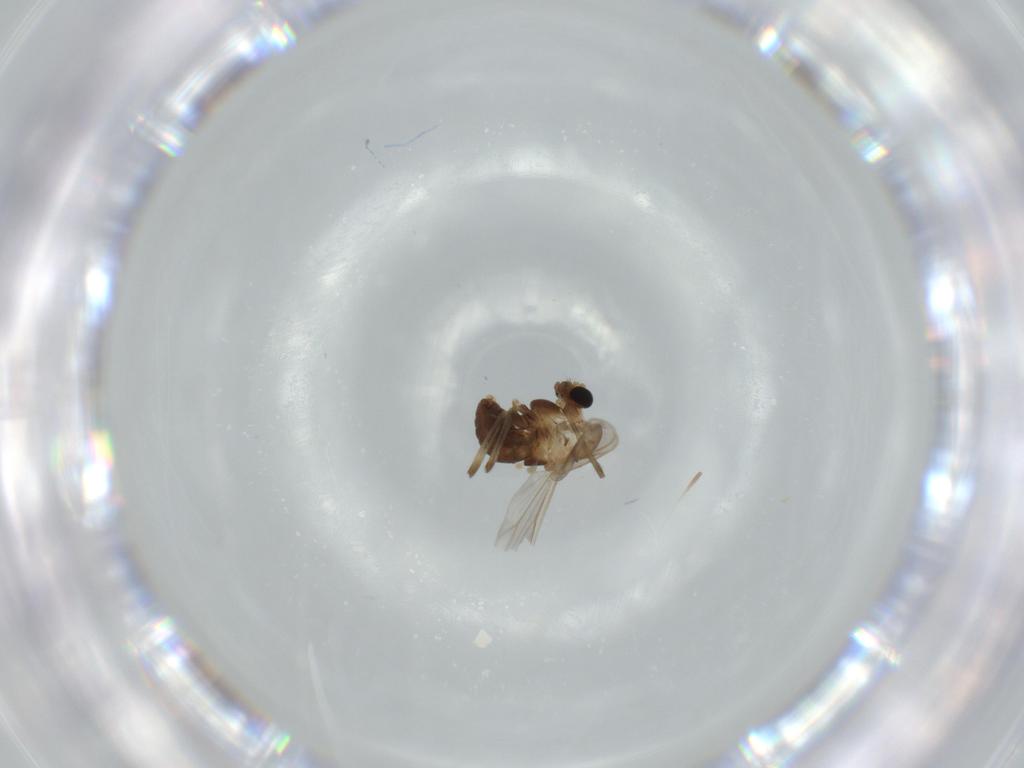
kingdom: Animalia
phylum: Arthropoda
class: Insecta
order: Diptera
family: Chironomidae
